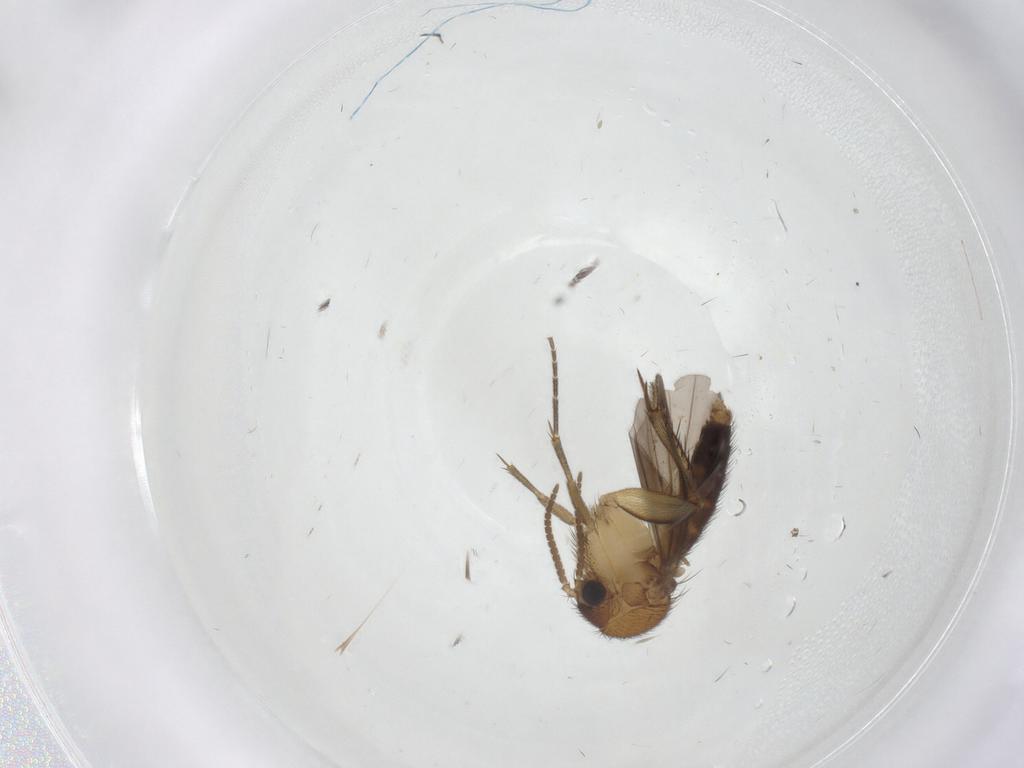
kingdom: Animalia
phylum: Arthropoda
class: Insecta
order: Diptera
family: Mycetophilidae
